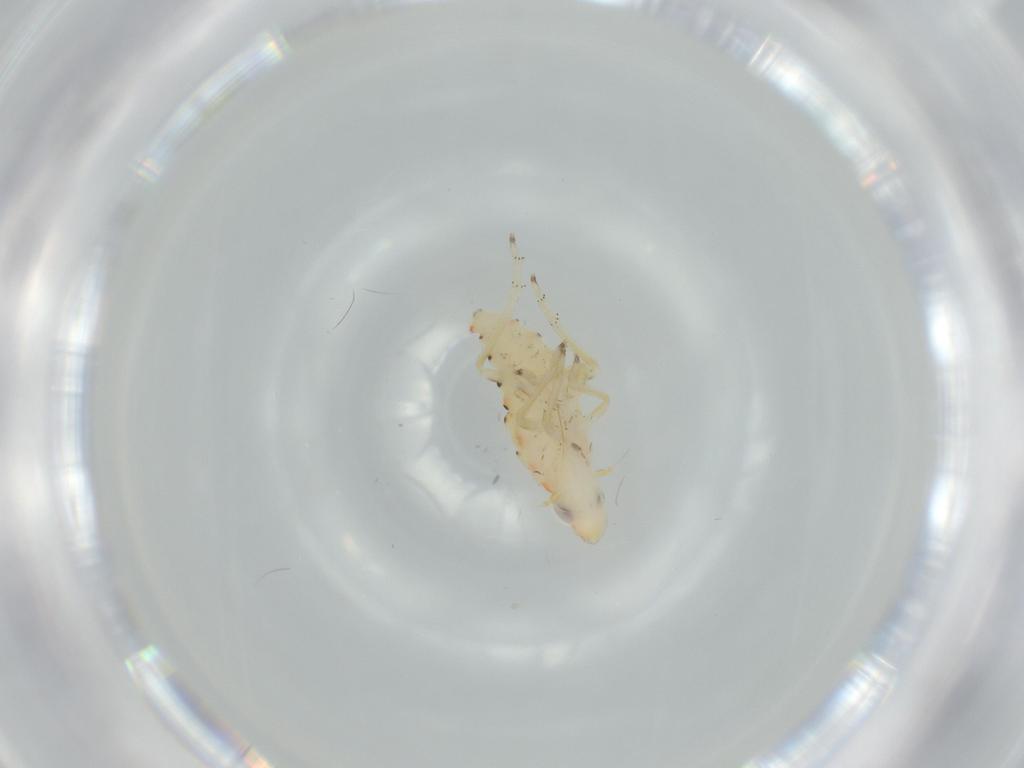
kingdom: Animalia
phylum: Arthropoda
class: Insecta
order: Hemiptera
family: Tropiduchidae
